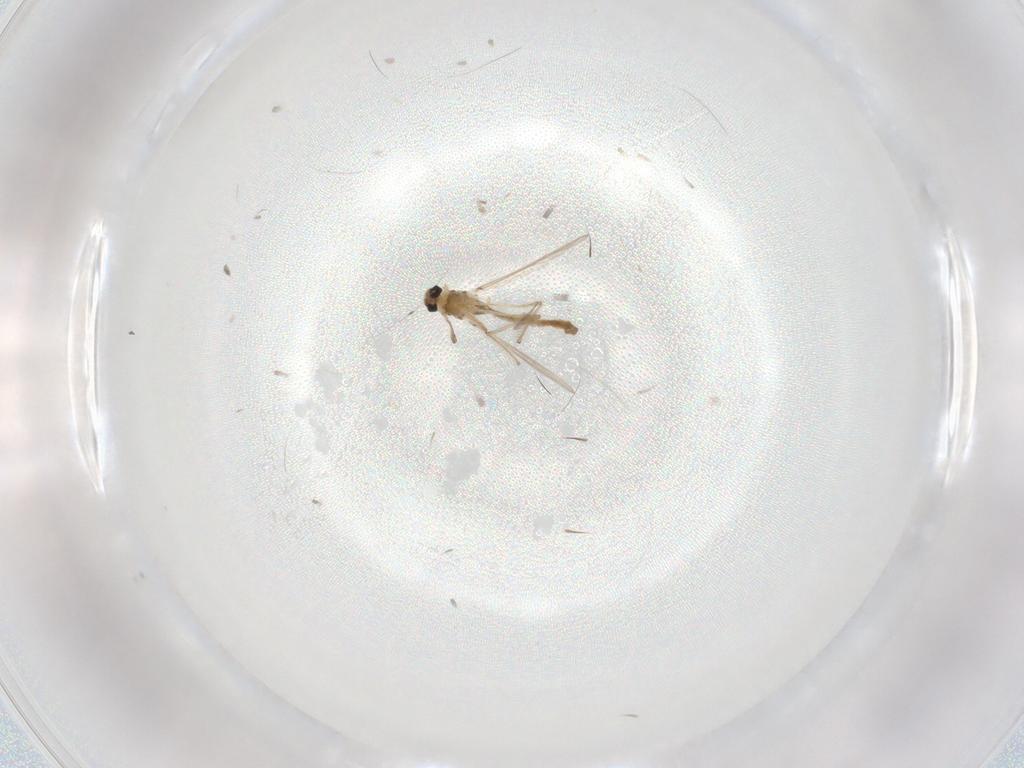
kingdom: Animalia
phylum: Arthropoda
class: Insecta
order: Diptera
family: Chironomidae
